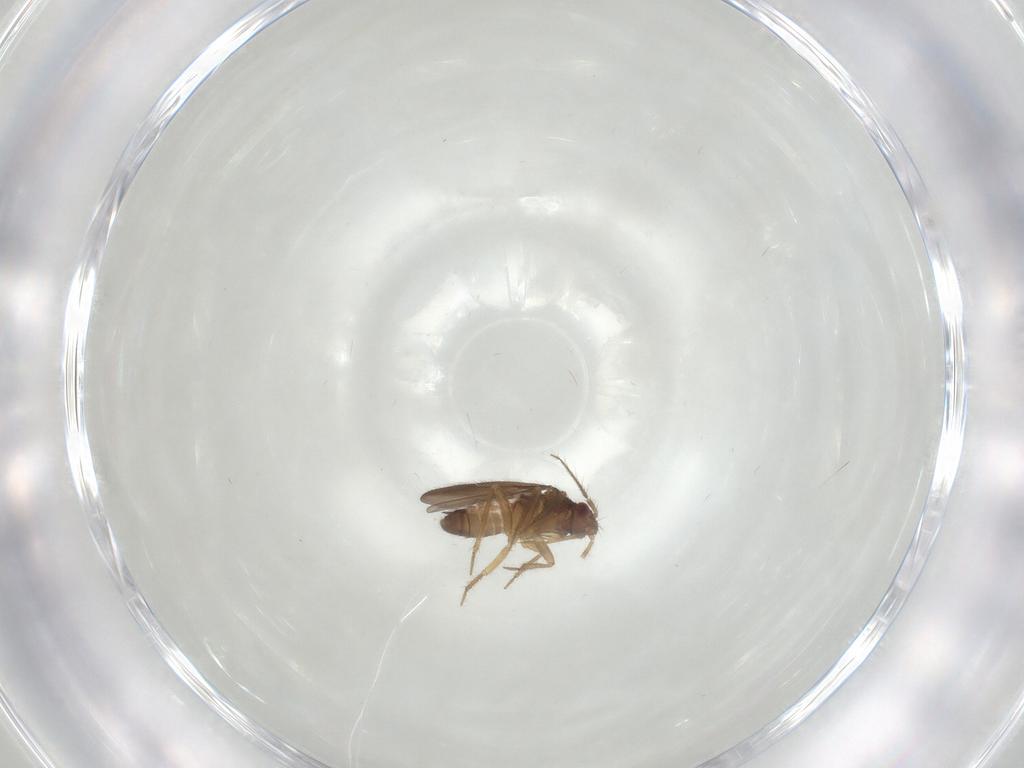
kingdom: Animalia
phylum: Arthropoda
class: Insecta
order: Hemiptera
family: Ceratocombidae
